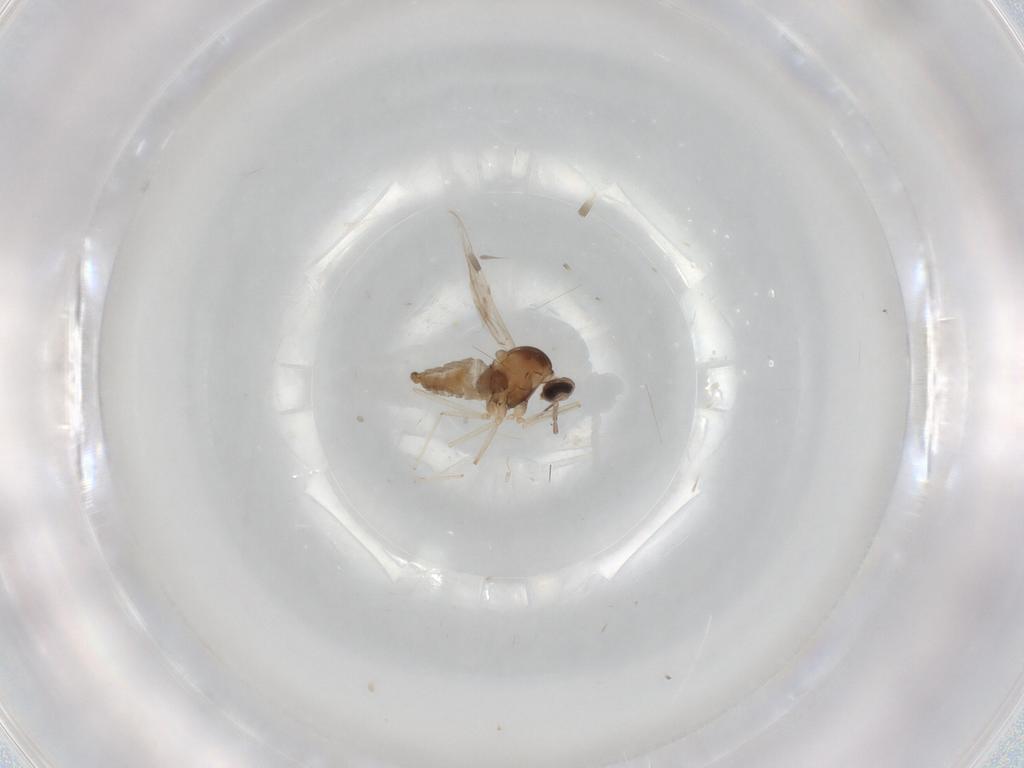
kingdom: Animalia
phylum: Arthropoda
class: Insecta
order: Diptera
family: Cecidomyiidae
